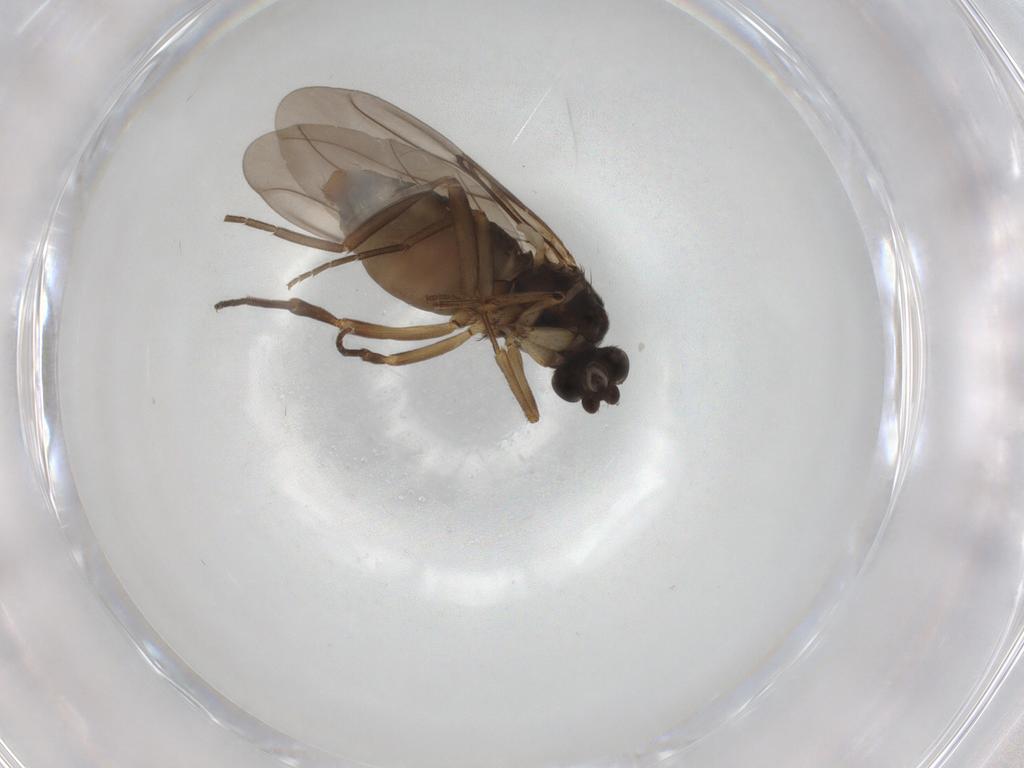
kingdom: Animalia
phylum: Arthropoda
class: Insecta
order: Diptera
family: Phoridae
